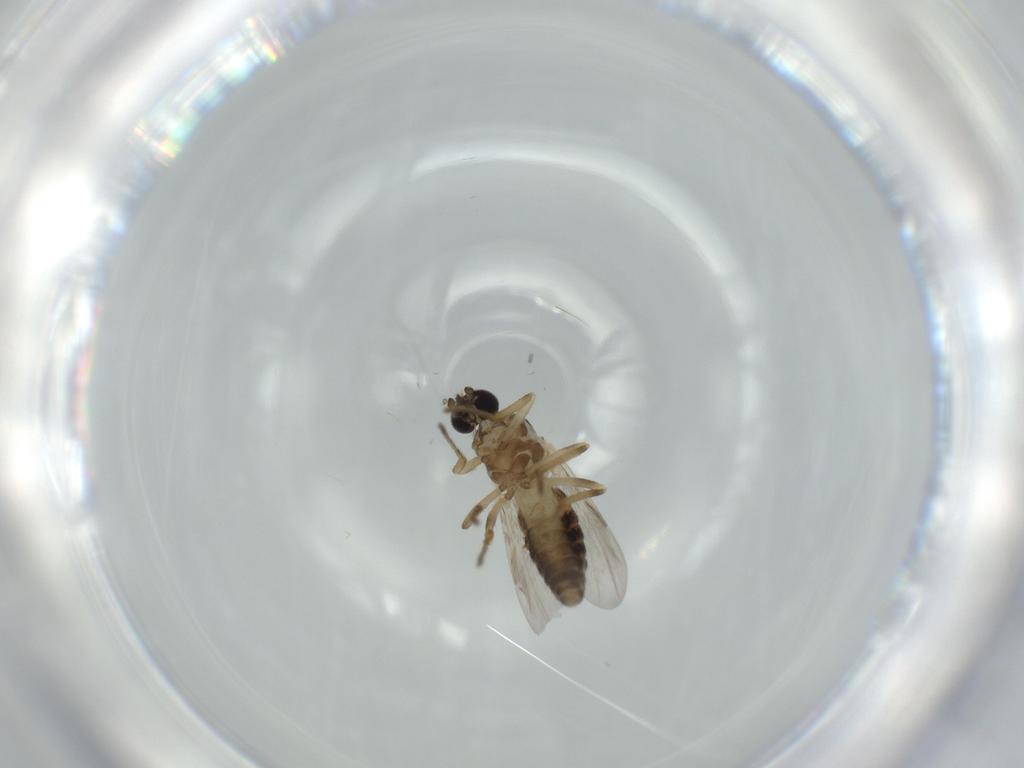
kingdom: Animalia
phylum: Arthropoda
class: Insecta
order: Diptera
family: Ceratopogonidae
